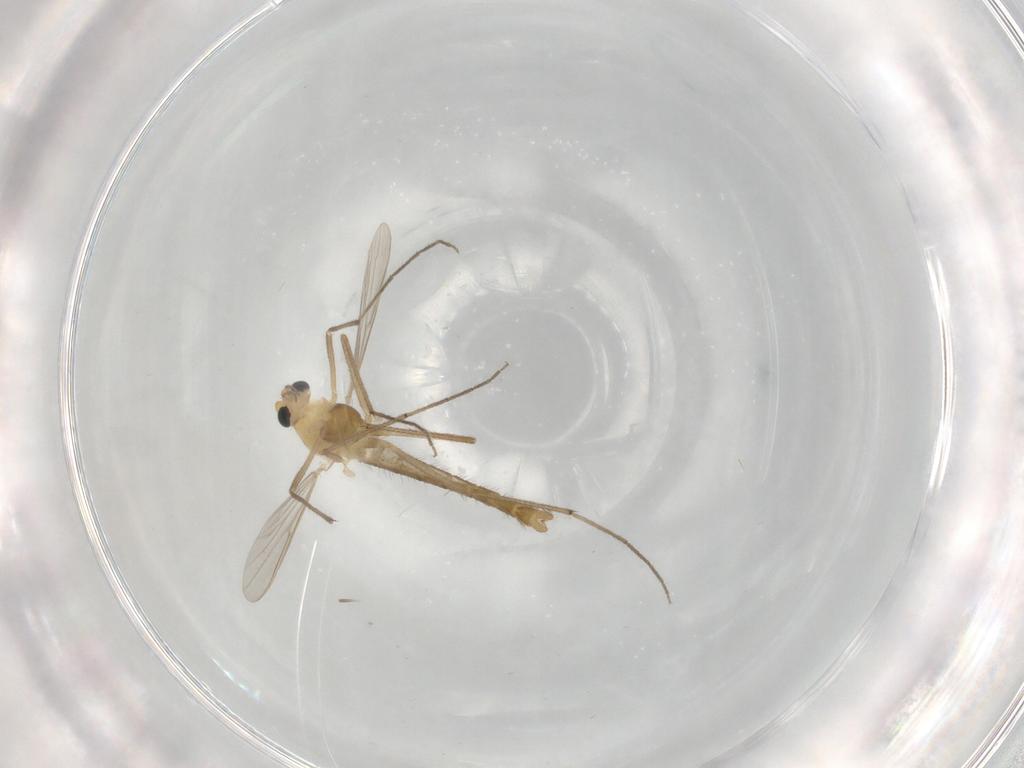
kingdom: Animalia
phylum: Arthropoda
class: Insecta
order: Diptera
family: Chironomidae
